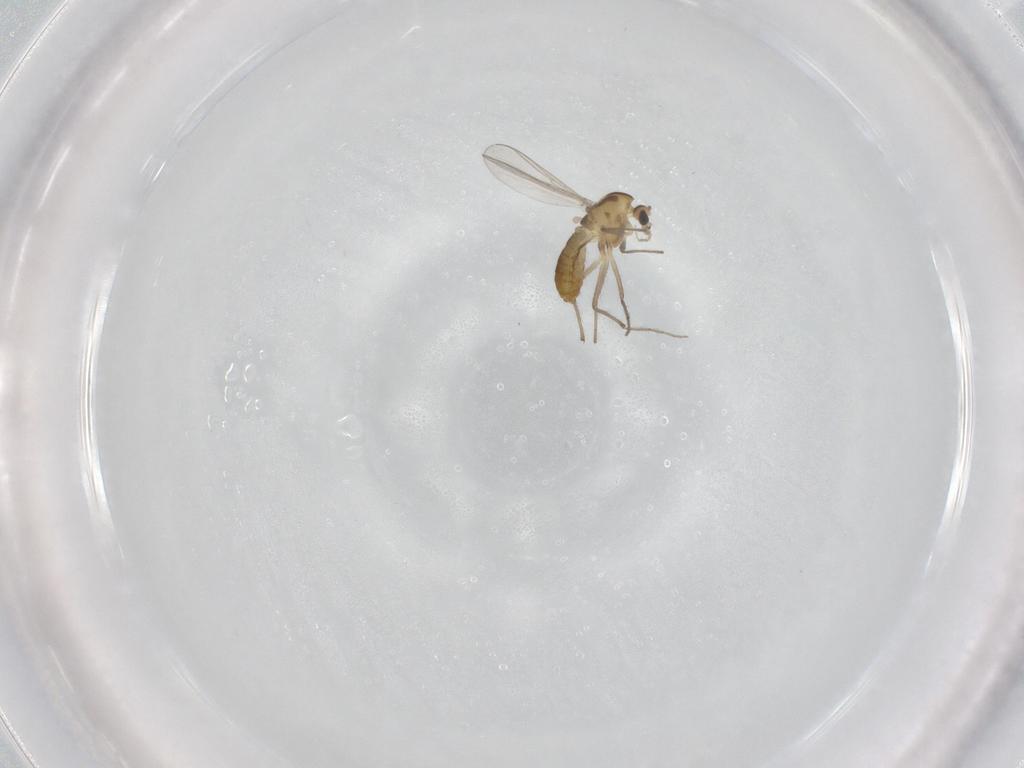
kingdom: Animalia
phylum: Arthropoda
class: Insecta
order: Diptera
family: Chironomidae
